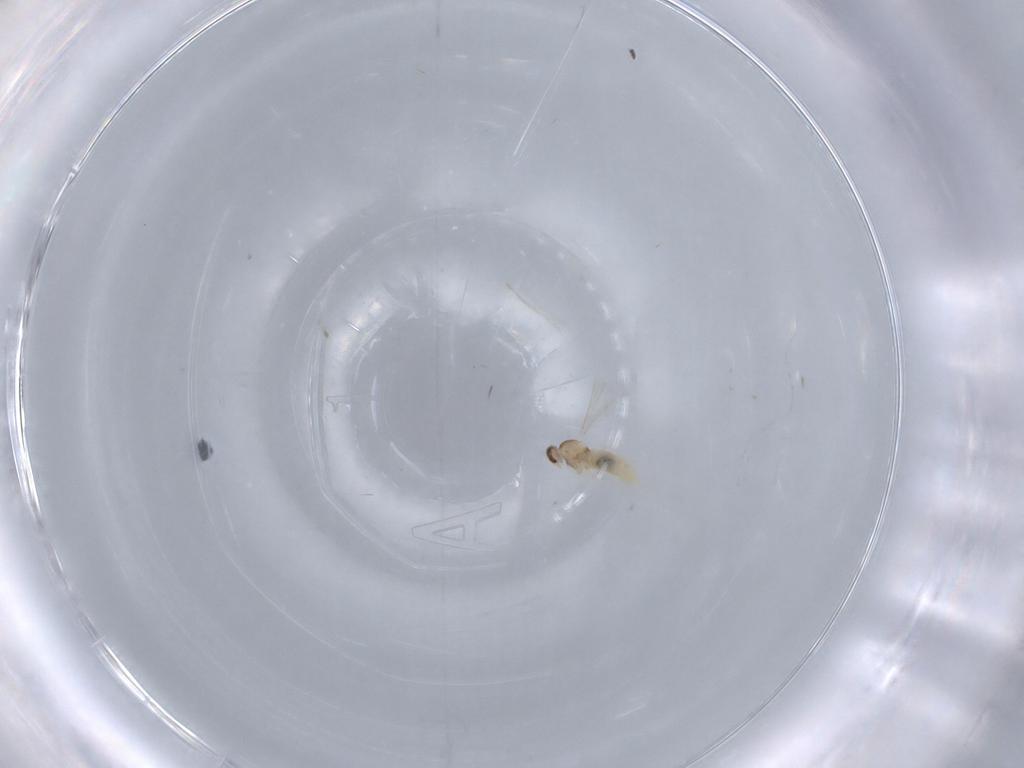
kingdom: Animalia
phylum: Arthropoda
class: Insecta
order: Diptera
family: Cecidomyiidae
